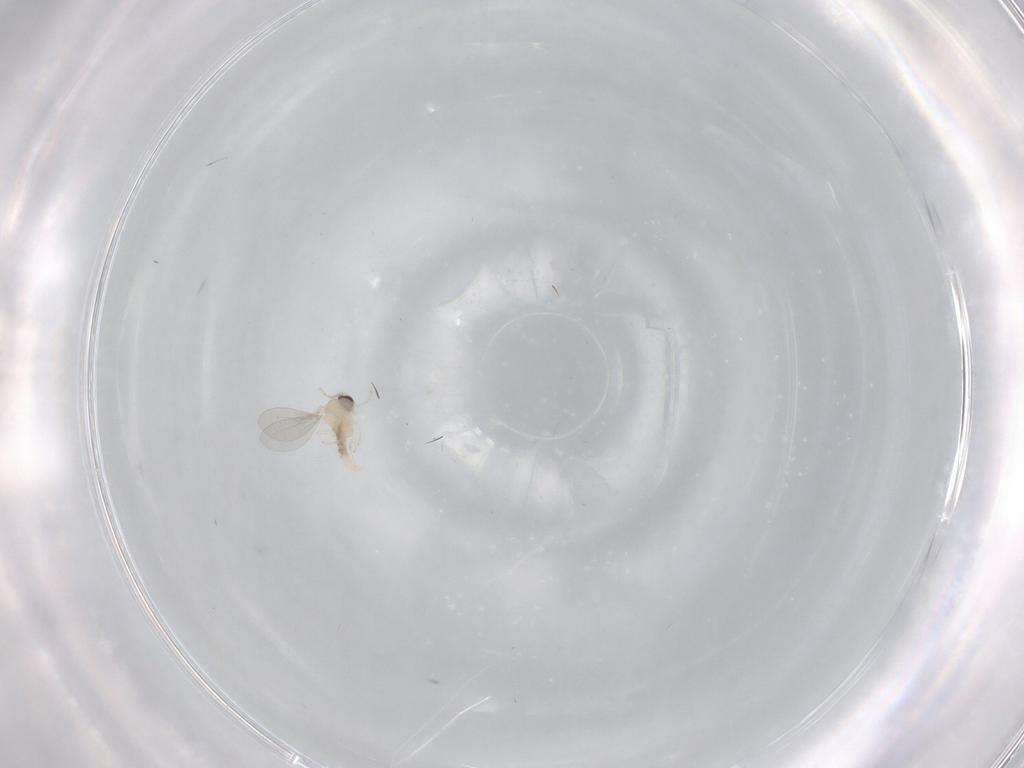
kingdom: Animalia
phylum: Arthropoda
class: Insecta
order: Diptera
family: Cecidomyiidae
